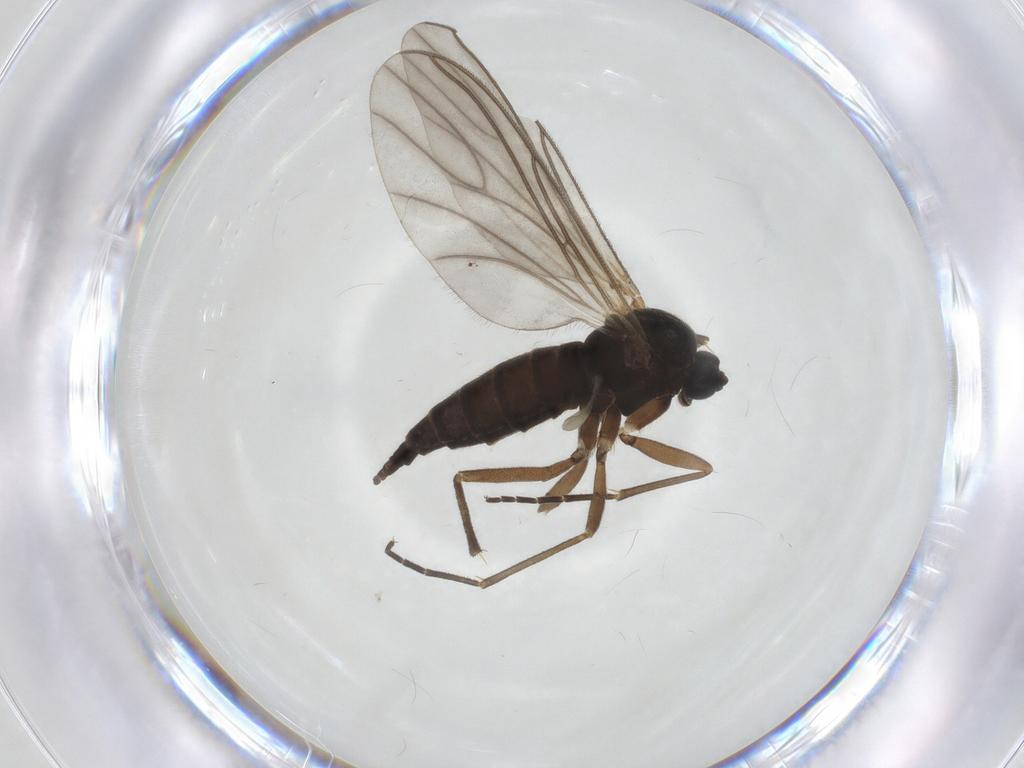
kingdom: Animalia
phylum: Arthropoda
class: Insecta
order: Diptera
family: Sciaridae
